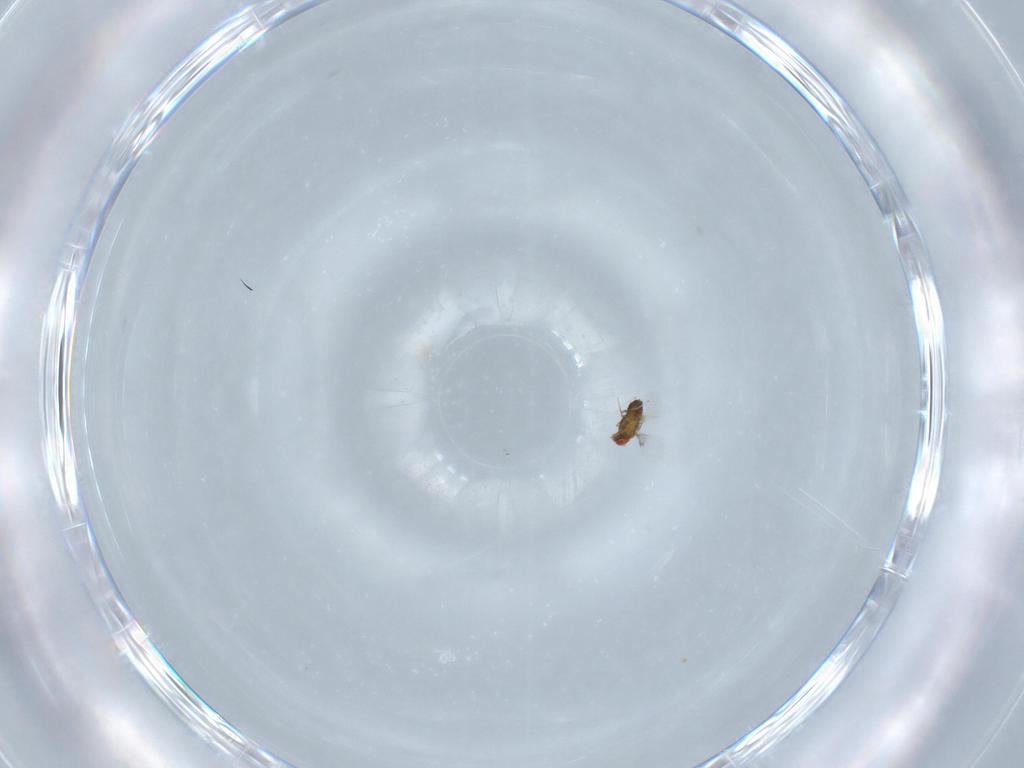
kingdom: Animalia
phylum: Arthropoda
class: Insecta
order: Hymenoptera
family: Trichogrammatidae
